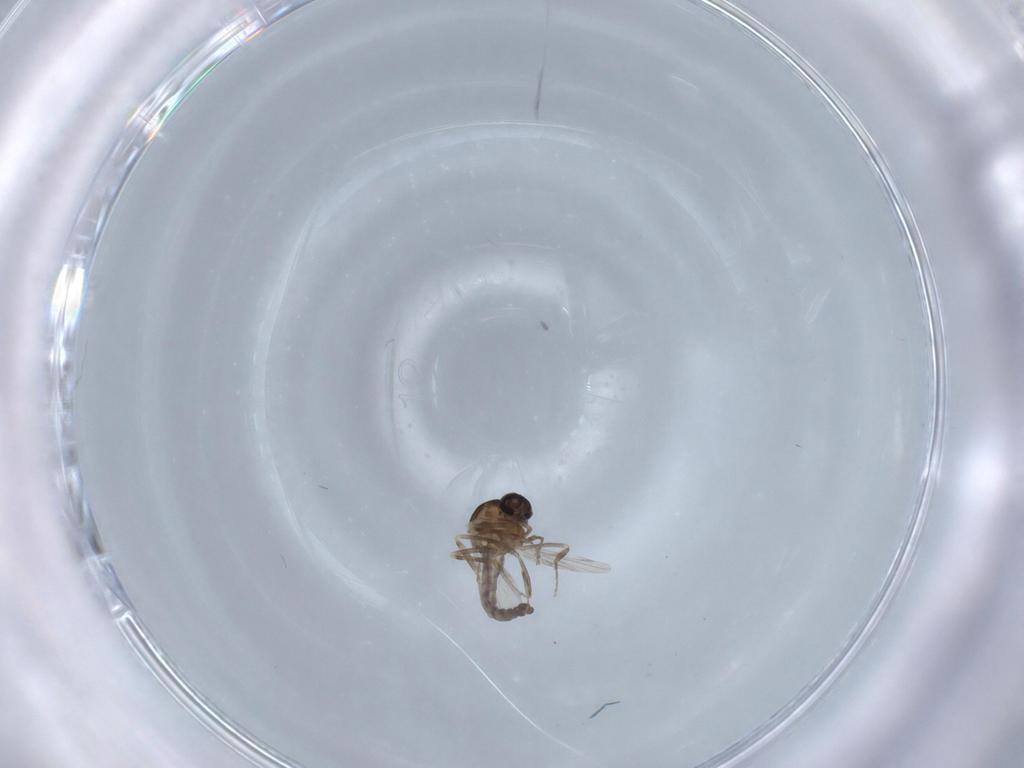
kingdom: Animalia
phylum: Arthropoda
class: Insecta
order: Diptera
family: Ceratopogonidae
